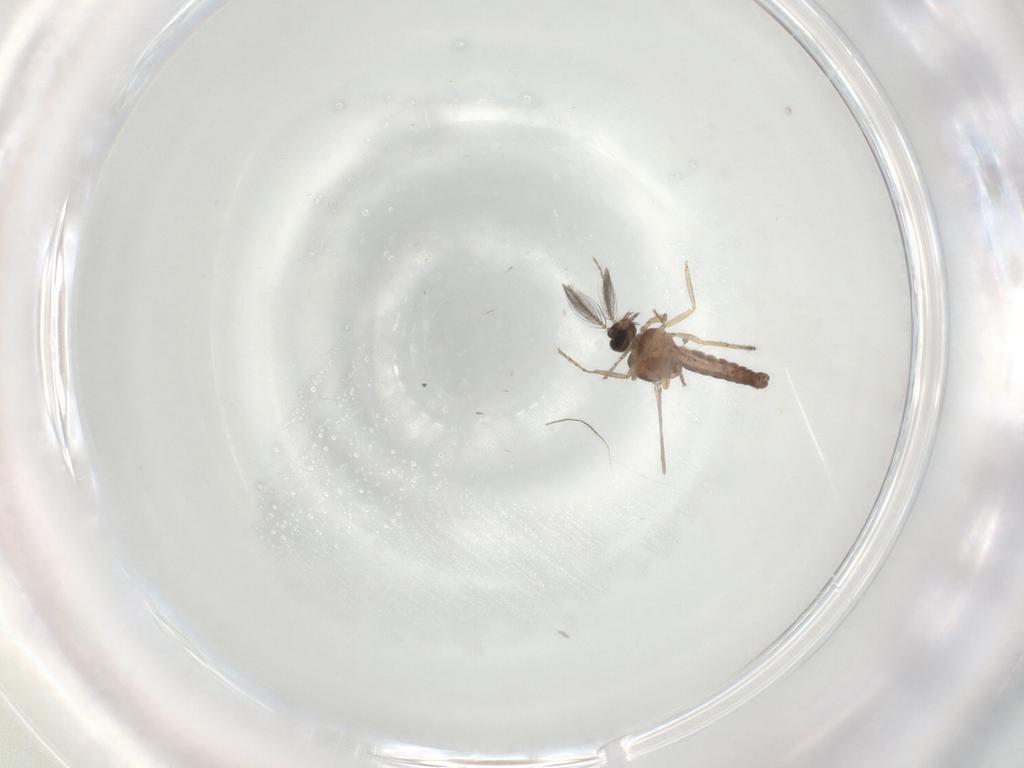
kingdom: Animalia
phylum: Arthropoda
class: Insecta
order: Diptera
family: Ceratopogonidae
